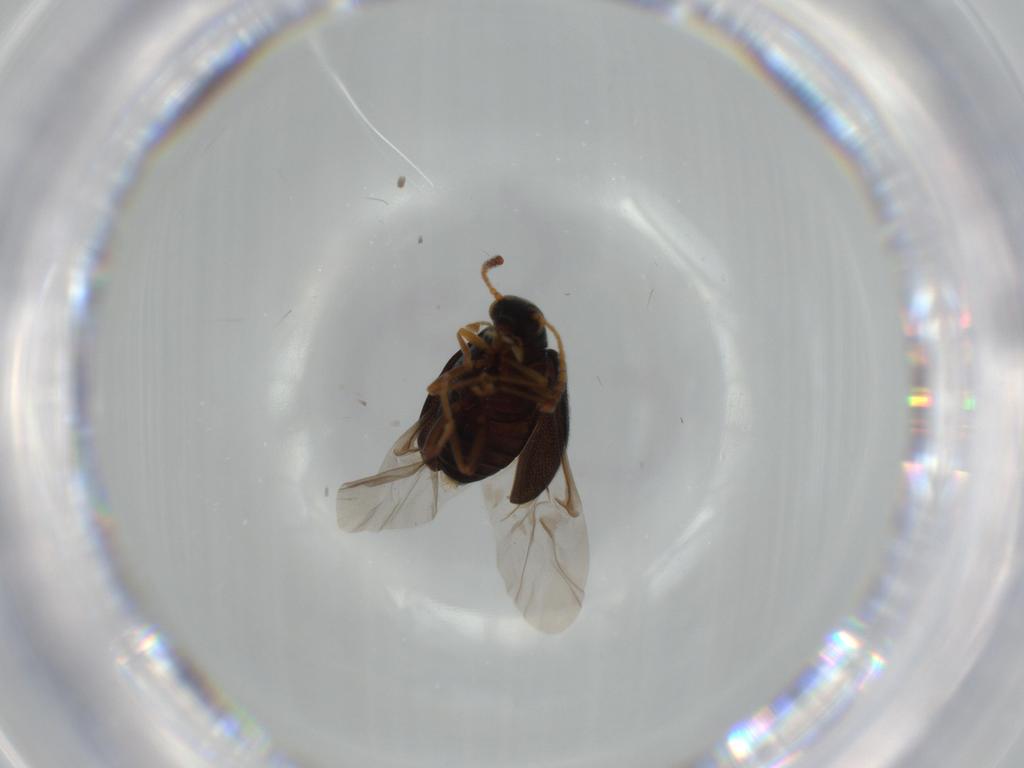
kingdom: Animalia
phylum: Arthropoda
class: Insecta
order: Coleoptera
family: Aderidae
